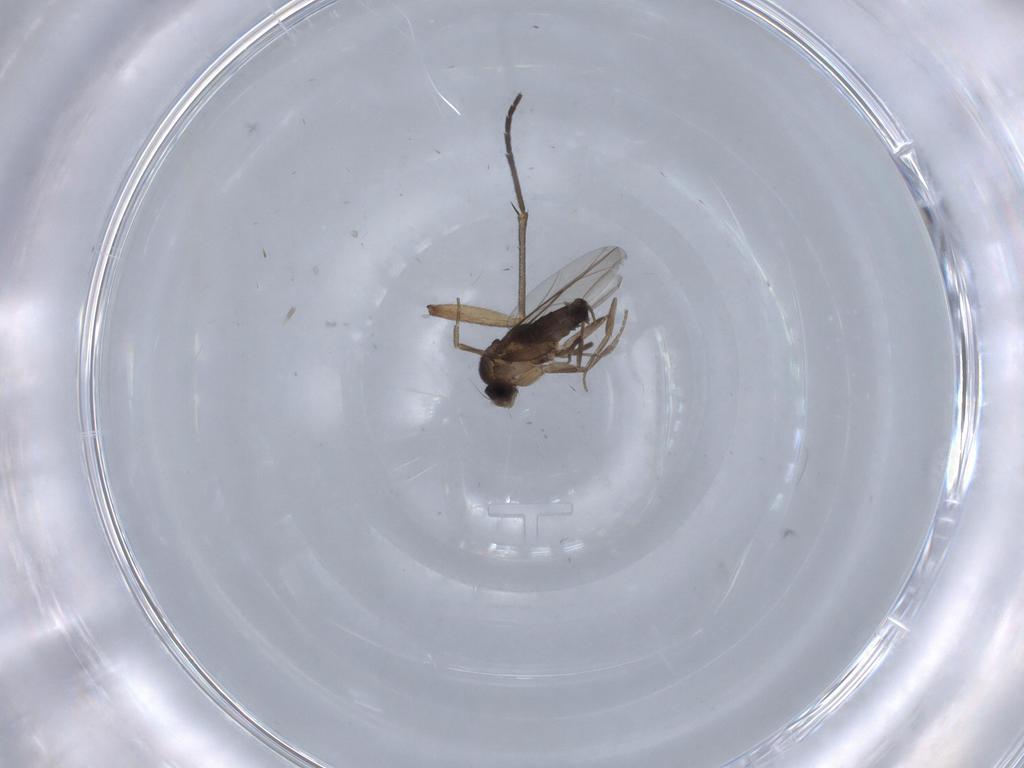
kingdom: Animalia
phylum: Arthropoda
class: Insecta
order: Diptera
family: Phoridae
